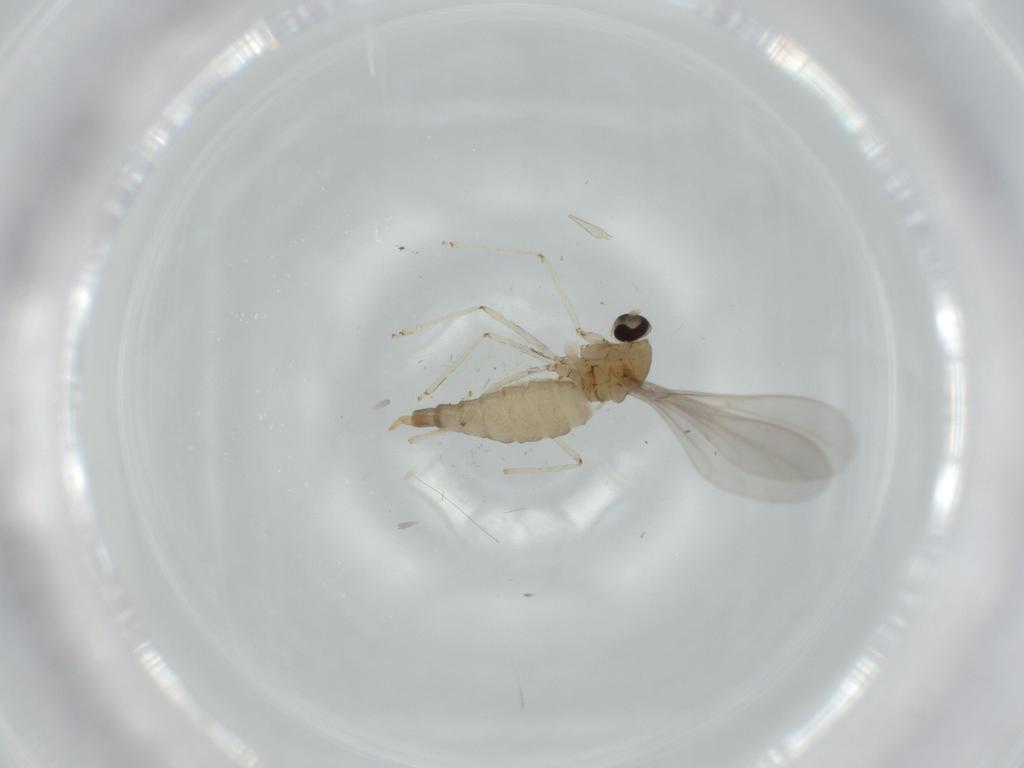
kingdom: Animalia
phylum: Arthropoda
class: Insecta
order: Diptera
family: Cecidomyiidae
